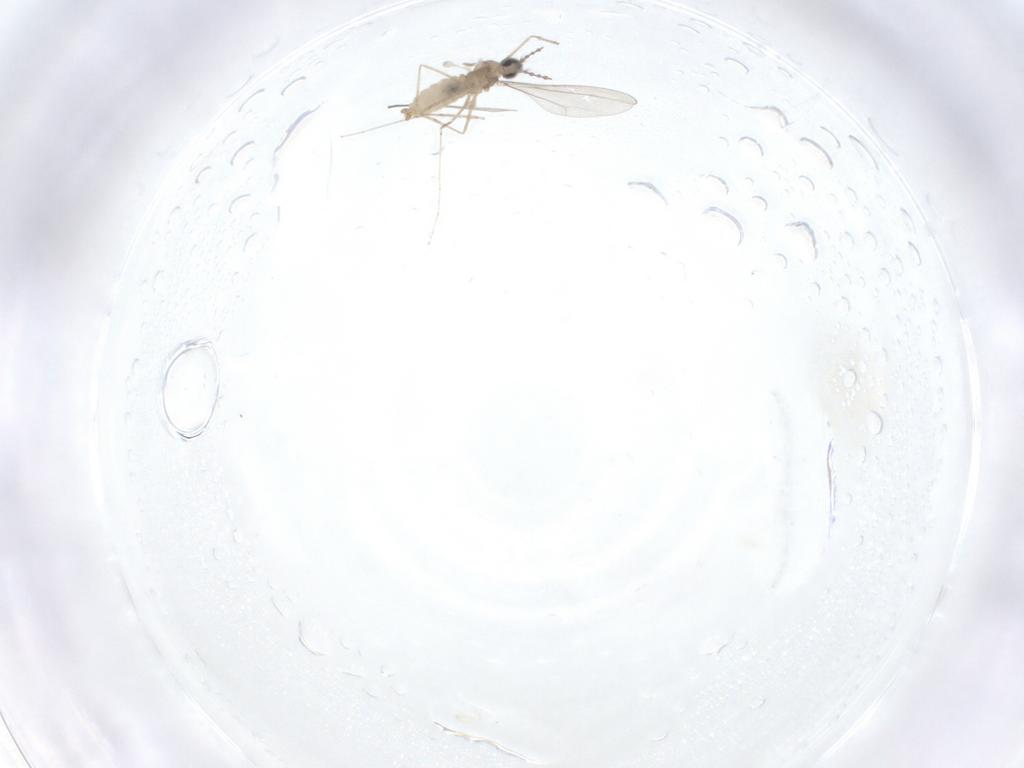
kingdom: Animalia
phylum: Arthropoda
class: Insecta
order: Diptera
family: Cecidomyiidae
